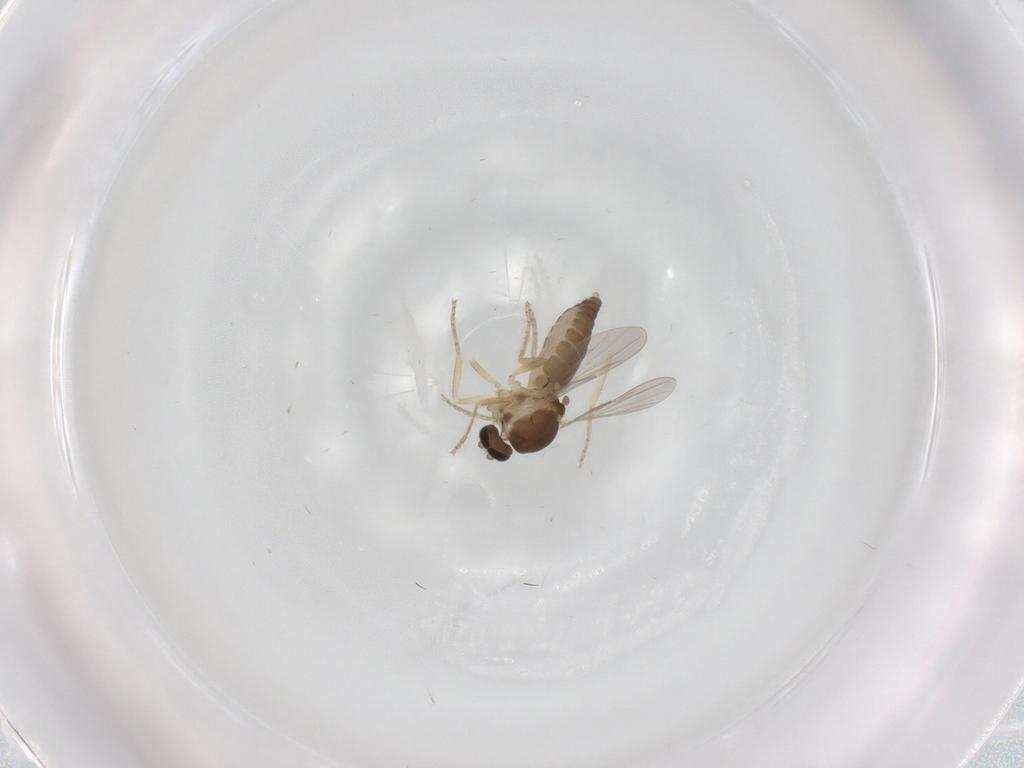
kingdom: Animalia
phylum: Arthropoda
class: Insecta
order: Diptera
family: Ceratopogonidae
